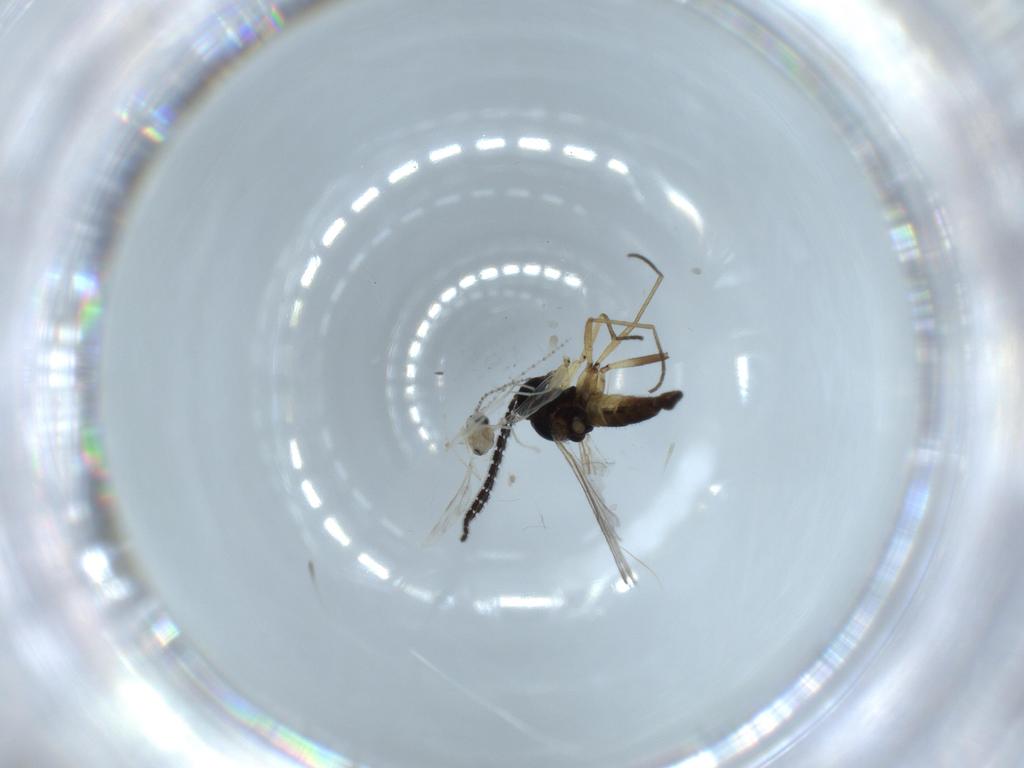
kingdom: Animalia
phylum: Arthropoda
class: Insecta
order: Diptera
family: Sciaridae
